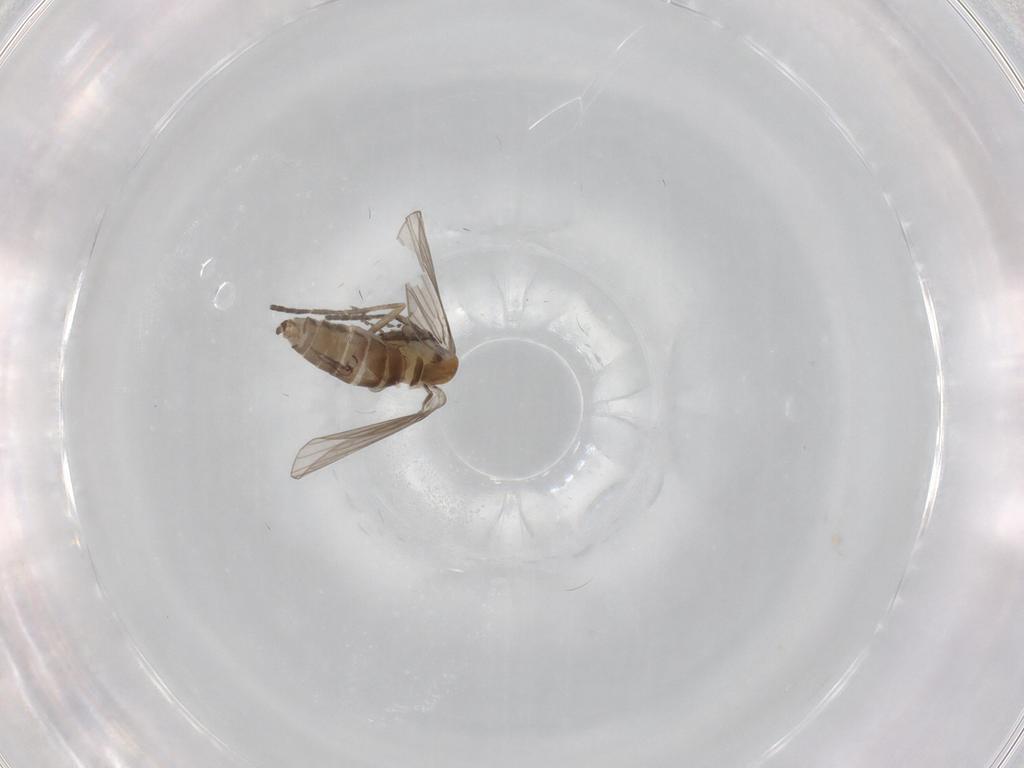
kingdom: Animalia
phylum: Arthropoda
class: Insecta
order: Diptera
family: Psychodidae
